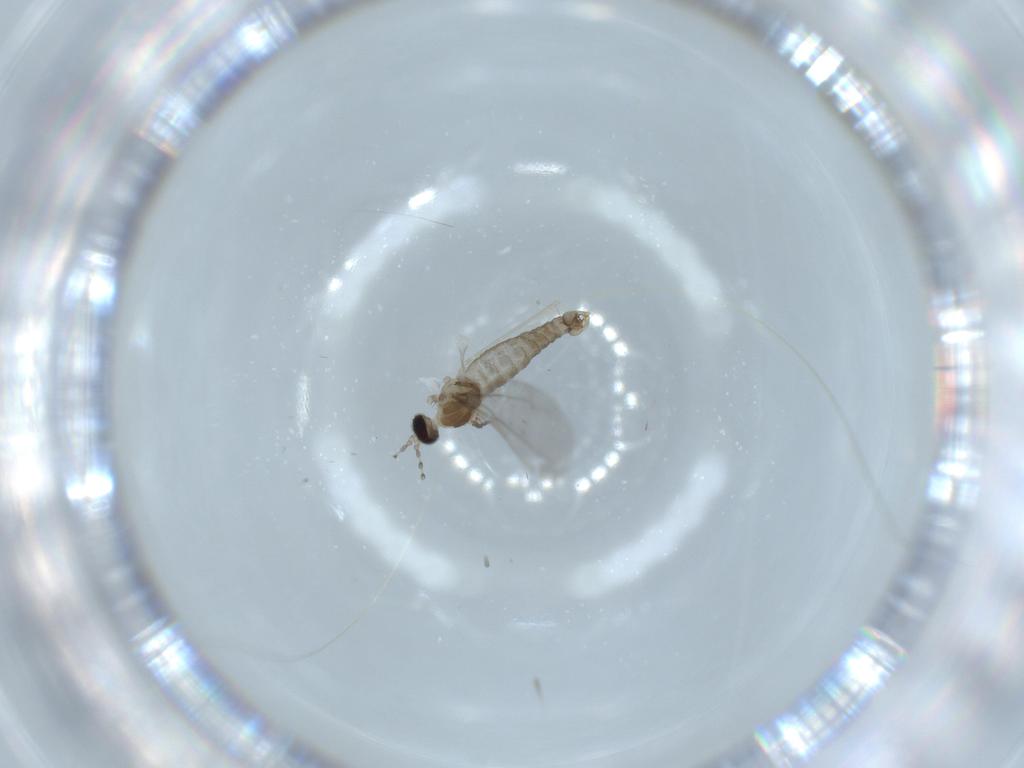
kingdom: Animalia
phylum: Arthropoda
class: Insecta
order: Diptera
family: Cecidomyiidae
